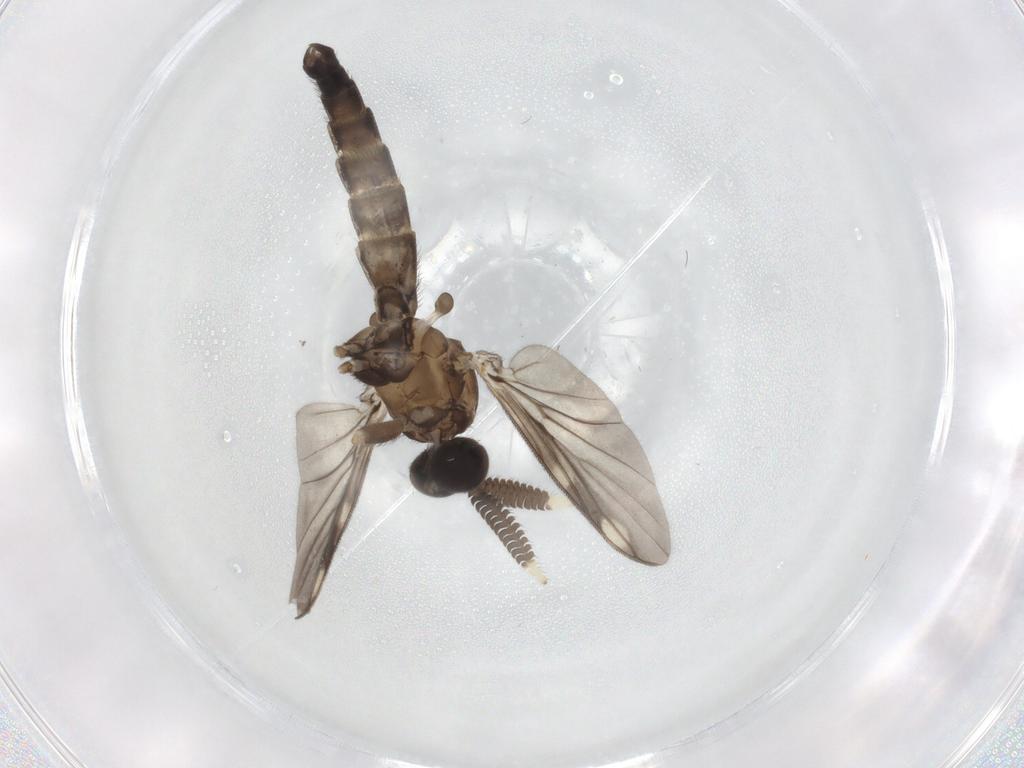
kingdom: Animalia
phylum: Arthropoda
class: Insecta
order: Diptera
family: Sciaridae
